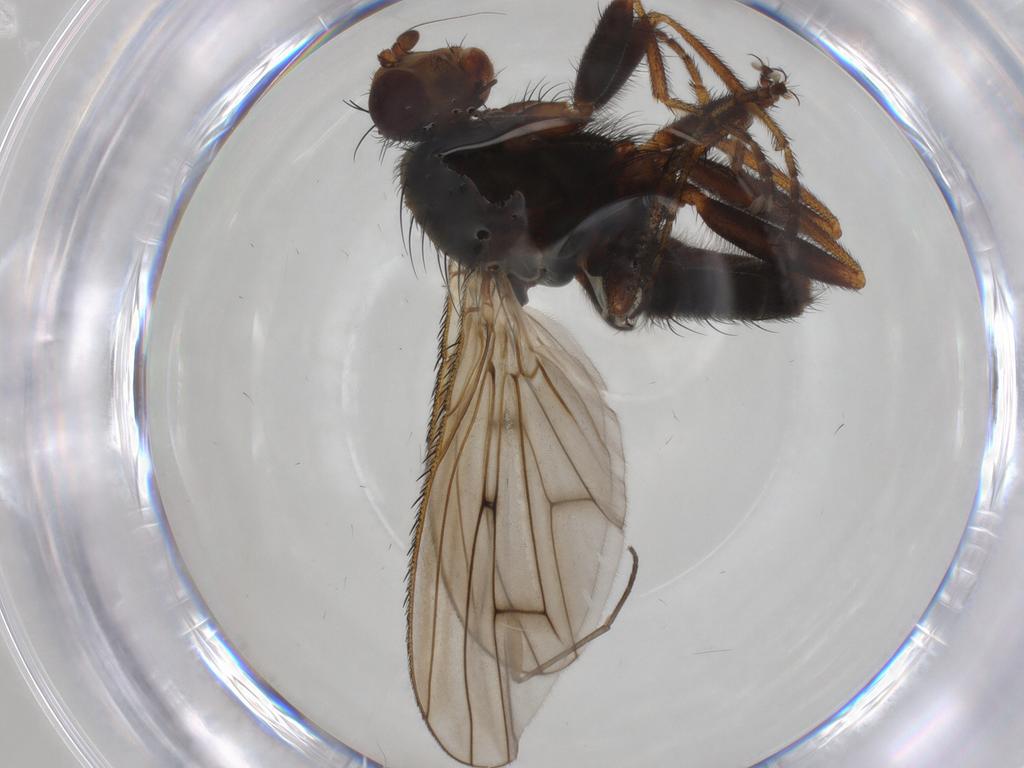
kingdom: Animalia
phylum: Arthropoda
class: Insecta
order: Diptera
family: Heleomyzidae
